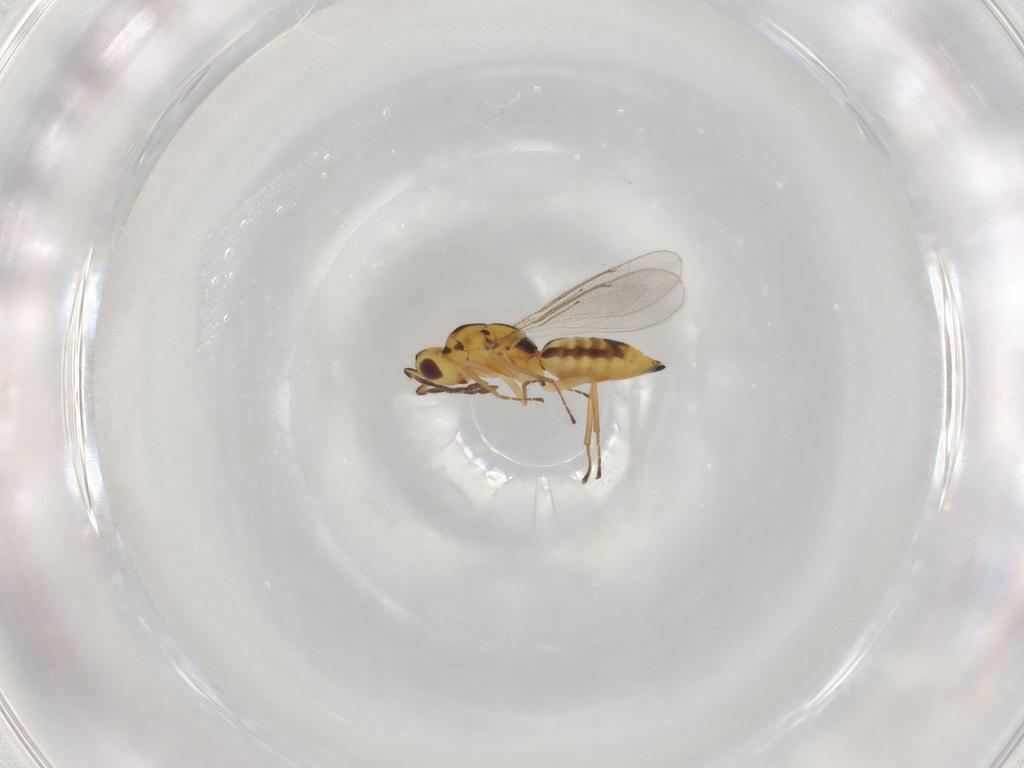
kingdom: Animalia
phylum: Arthropoda
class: Insecta
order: Hymenoptera
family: Eulophidae
